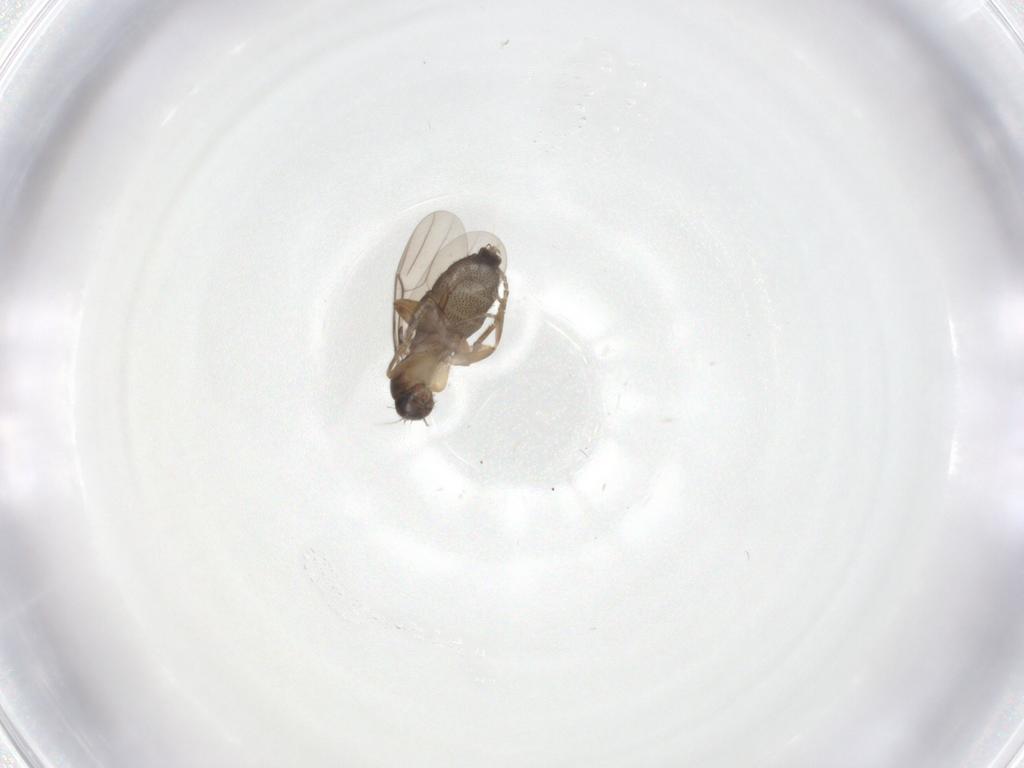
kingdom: Animalia
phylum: Arthropoda
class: Insecta
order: Diptera
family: Phoridae
